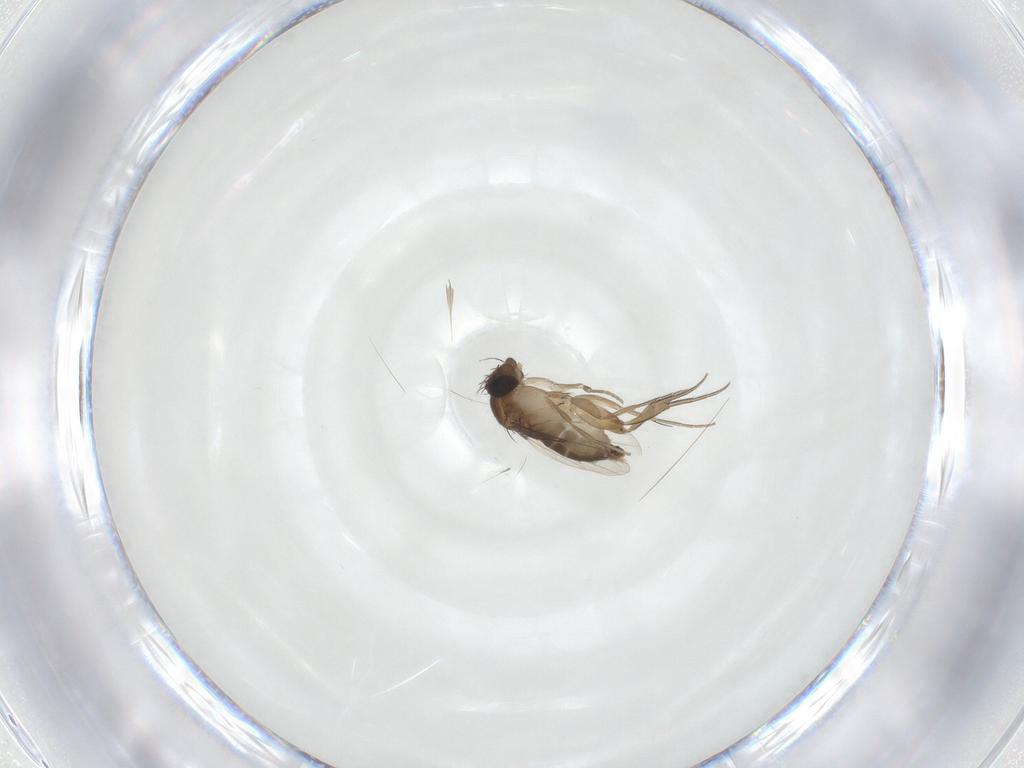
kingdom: Animalia
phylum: Arthropoda
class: Insecta
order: Diptera
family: Phoridae
